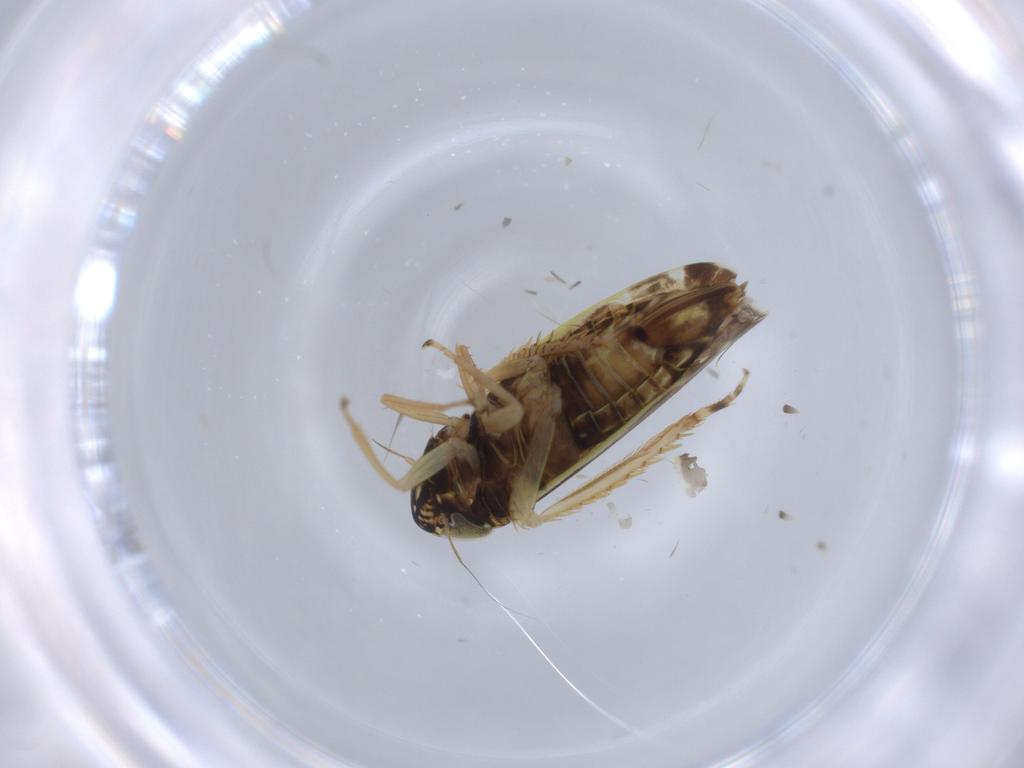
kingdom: Animalia
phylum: Arthropoda
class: Insecta
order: Hemiptera
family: Cicadellidae
